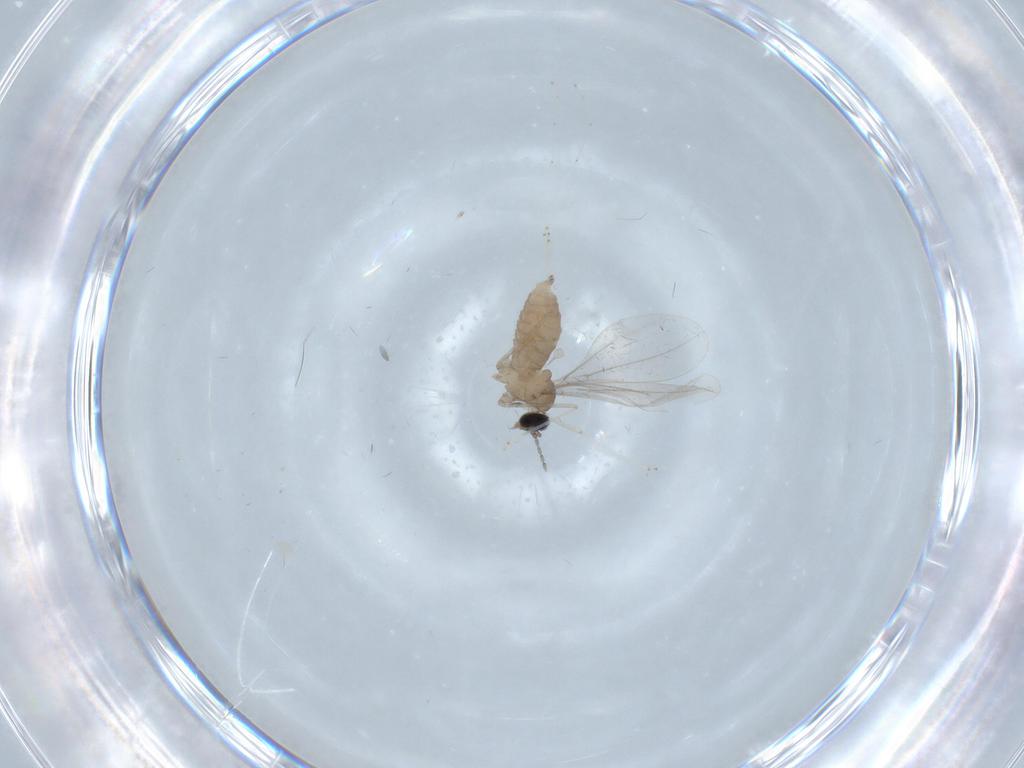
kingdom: Animalia
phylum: Arthropoda
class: Insecta
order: Diptera
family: Cecidomyiidae
